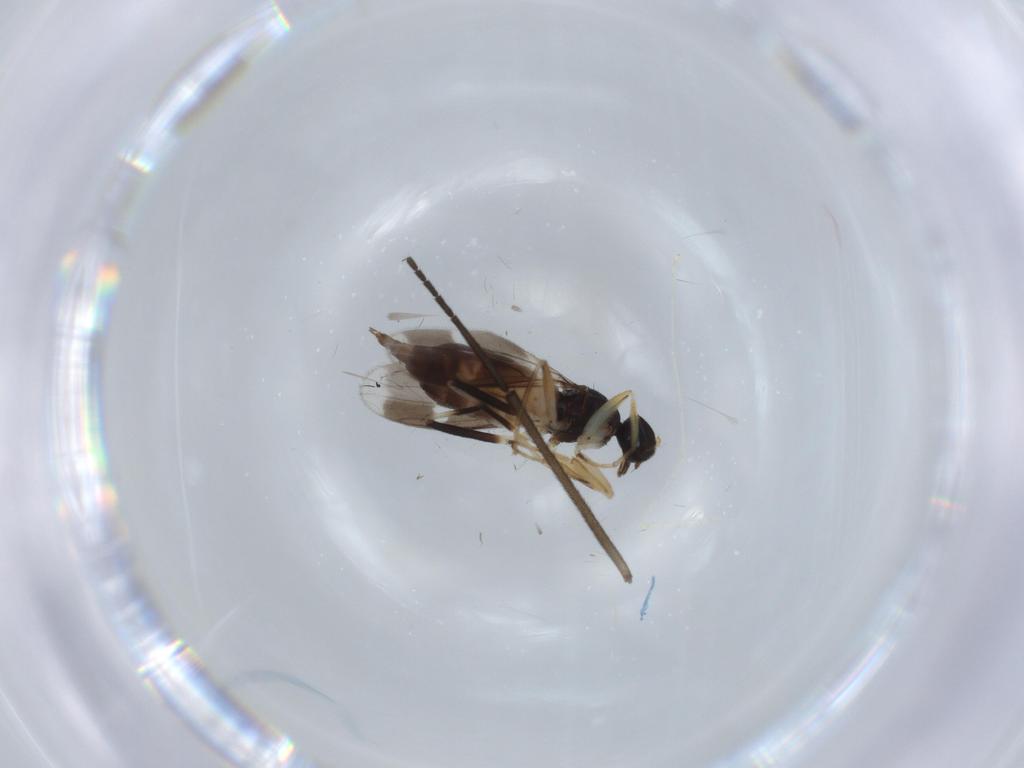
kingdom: Animalia
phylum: Arthropoda
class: Insecta
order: Diptera
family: Hybotidae
